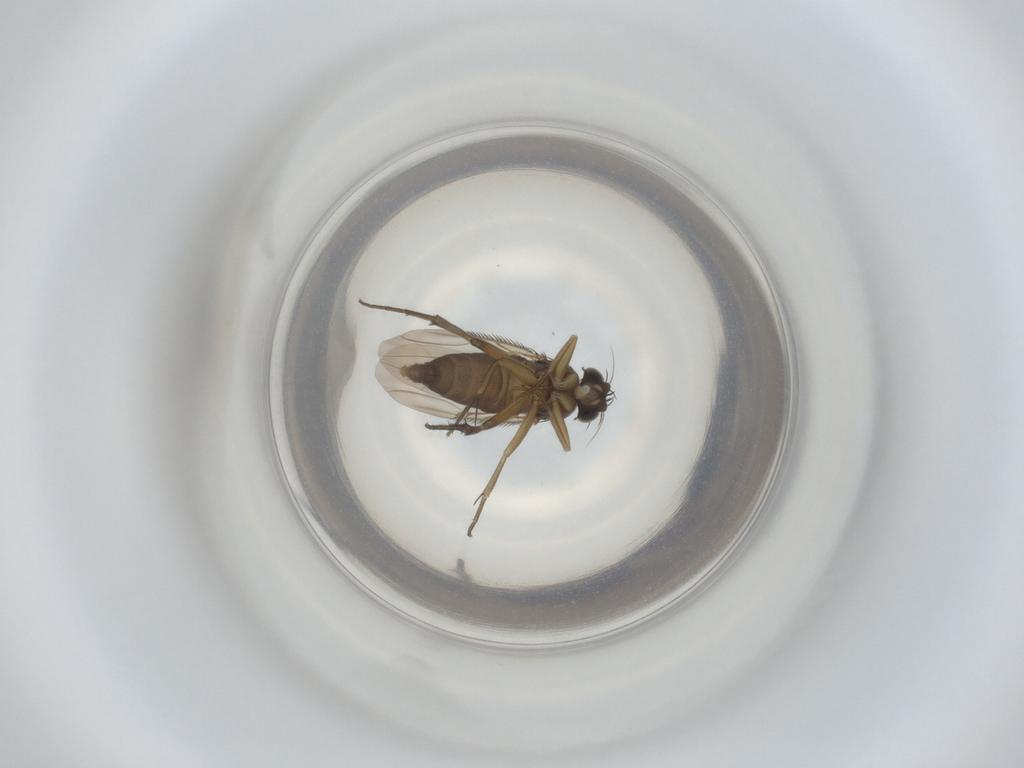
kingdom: Animalia
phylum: Arthropoda
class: Insecta
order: Diptera
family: Phoridae
